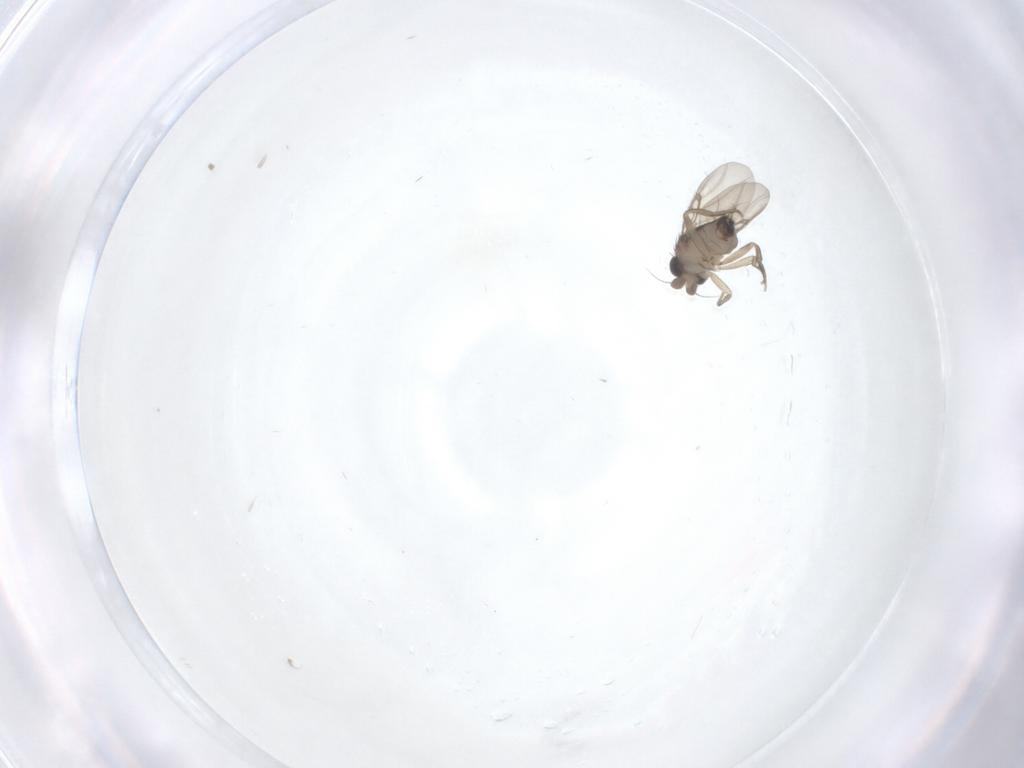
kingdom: Animalia
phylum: Arthropoda
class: Insecta
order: Diptera
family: Phoridae
